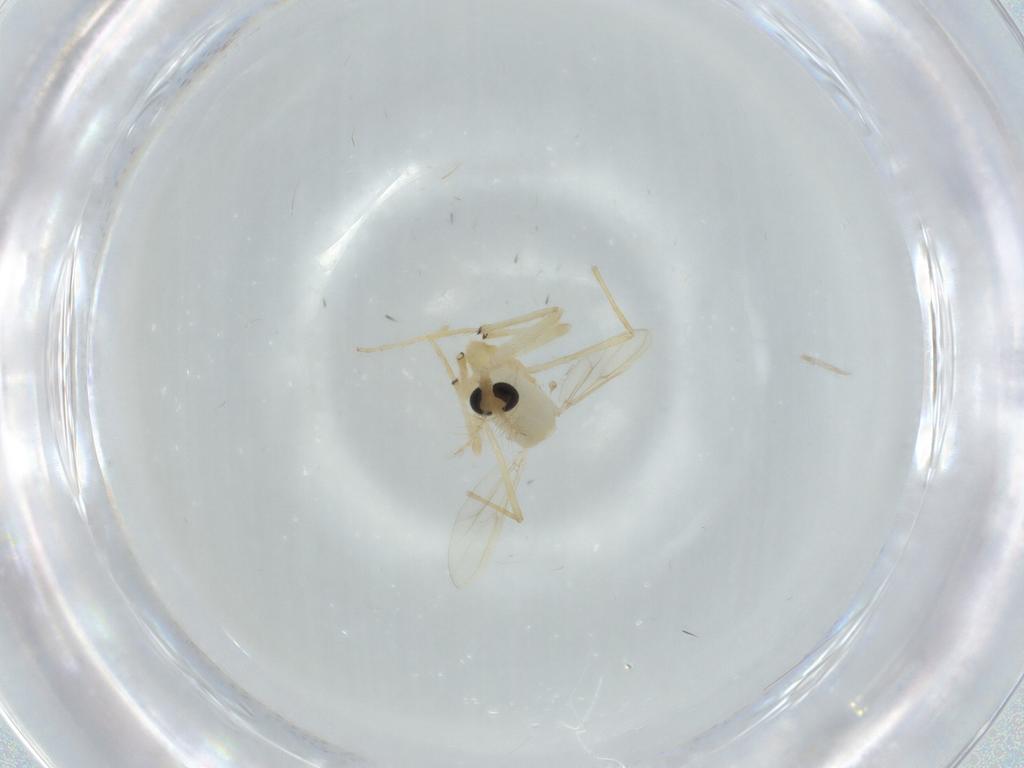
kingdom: Animalia
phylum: Arthropoda
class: Insecta
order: Diptera
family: Chironomidae
